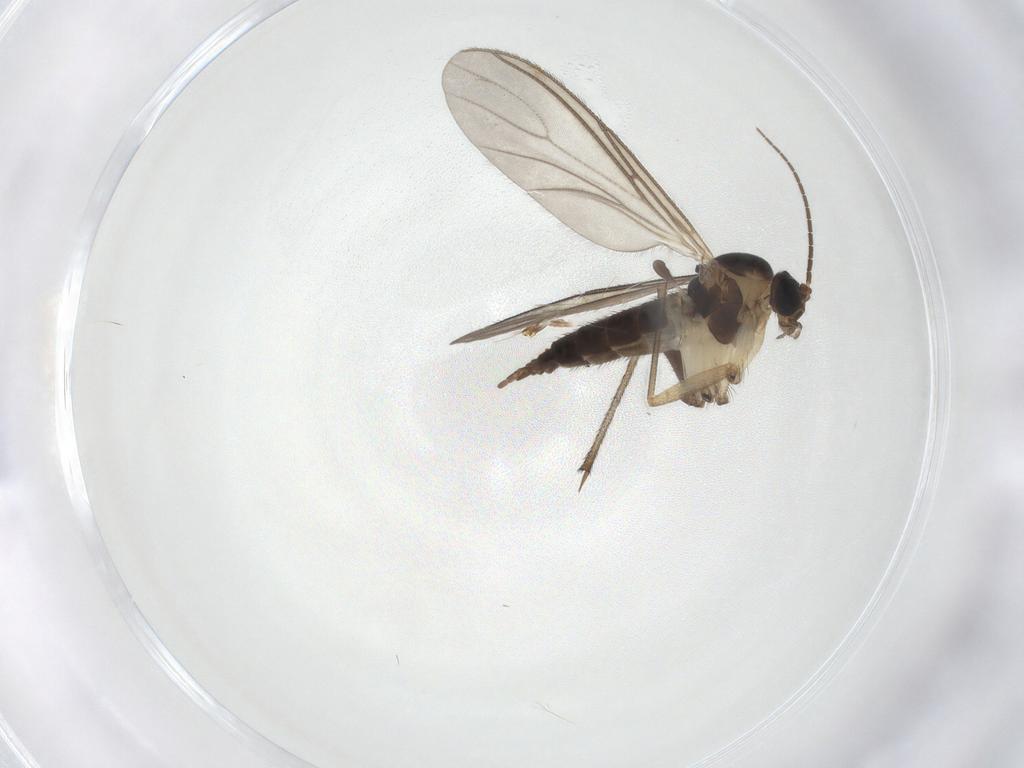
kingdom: Animalia
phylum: Arthropoda
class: Insecta
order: Diptera
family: Sciaridae
